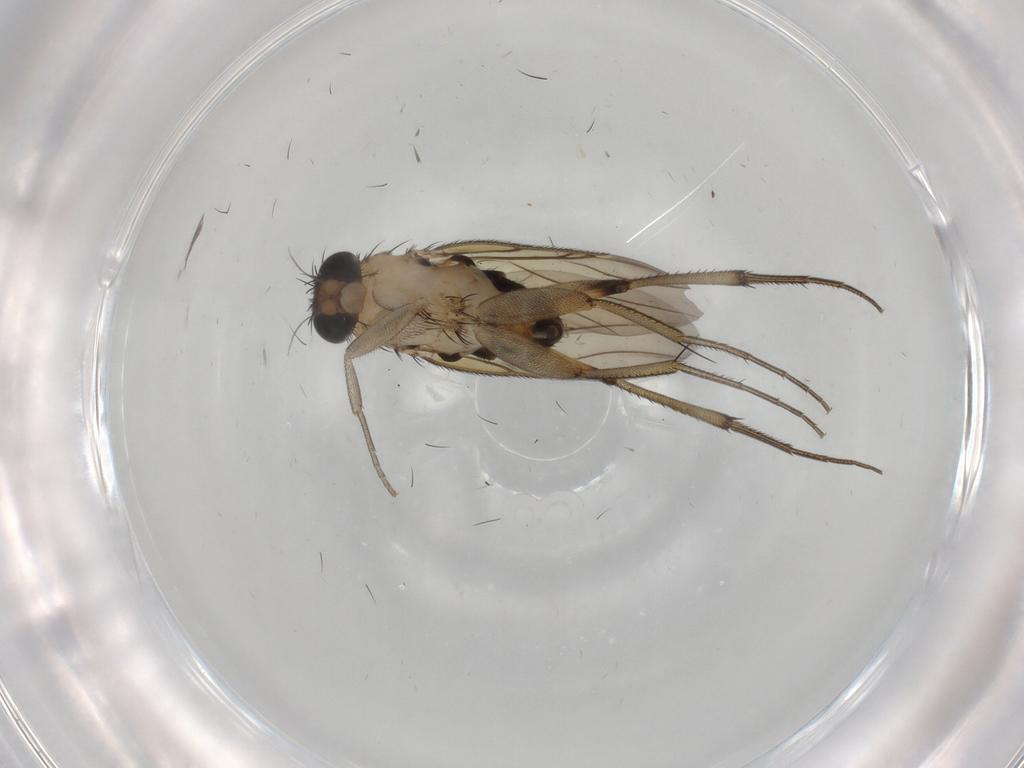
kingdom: Animalia
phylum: Arthropoda
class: Insecta
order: Diptera
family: Phoridae
